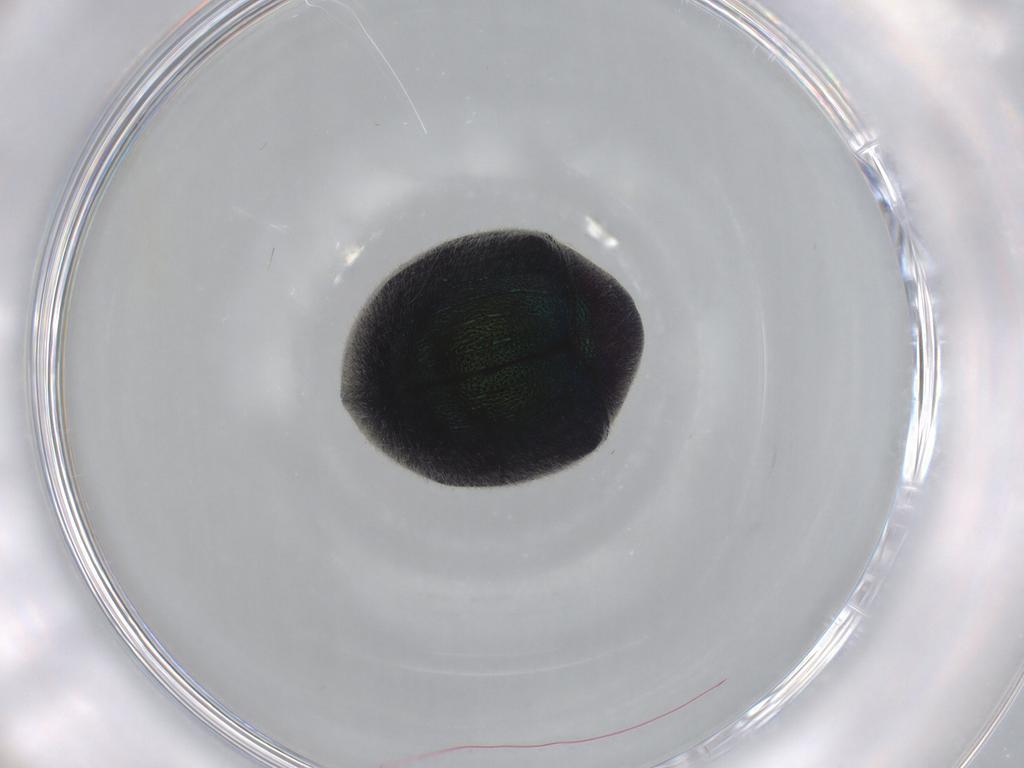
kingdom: Animalia
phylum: Arthropoda
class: Insecta
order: Coleoptera
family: Ptinidae
